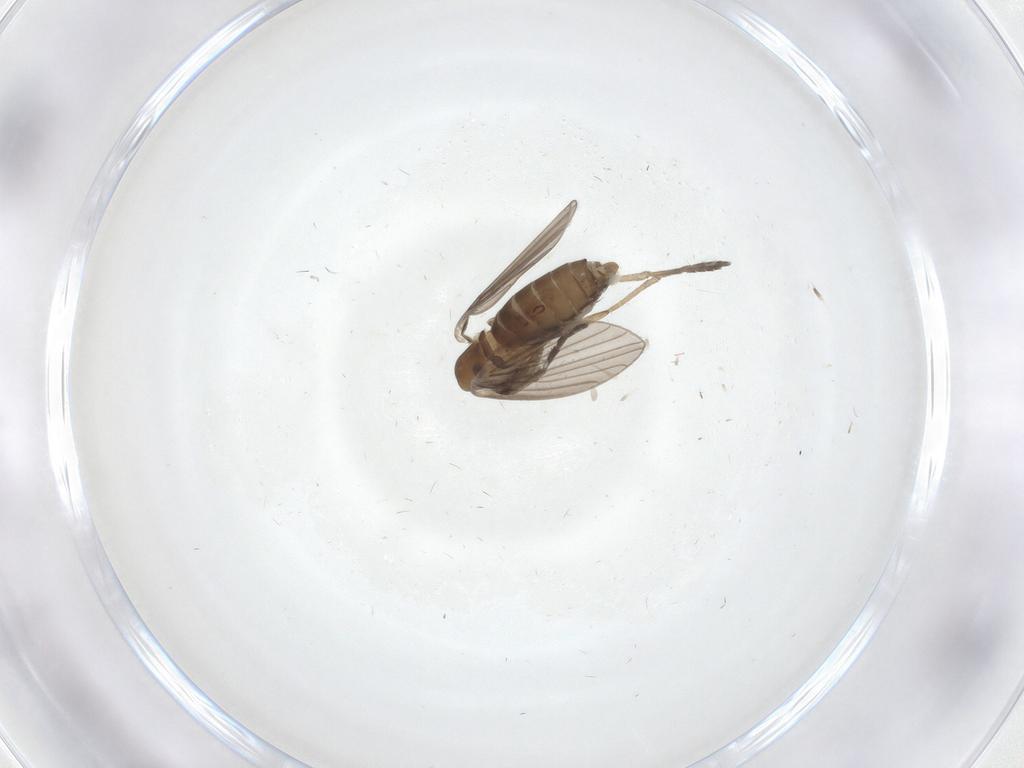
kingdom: Animalia
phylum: Arthropoda
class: Insecta
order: Diptera
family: Psychodidae
